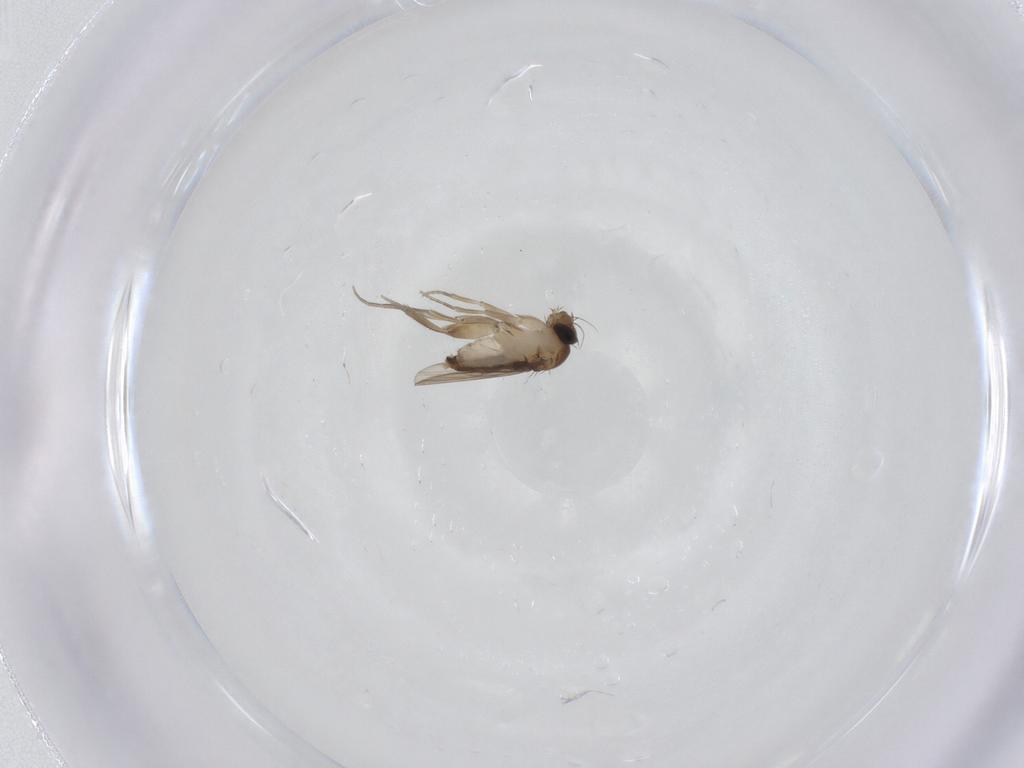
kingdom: Animalia
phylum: Arthropoda
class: Insecta
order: Diptera
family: Phoridae
